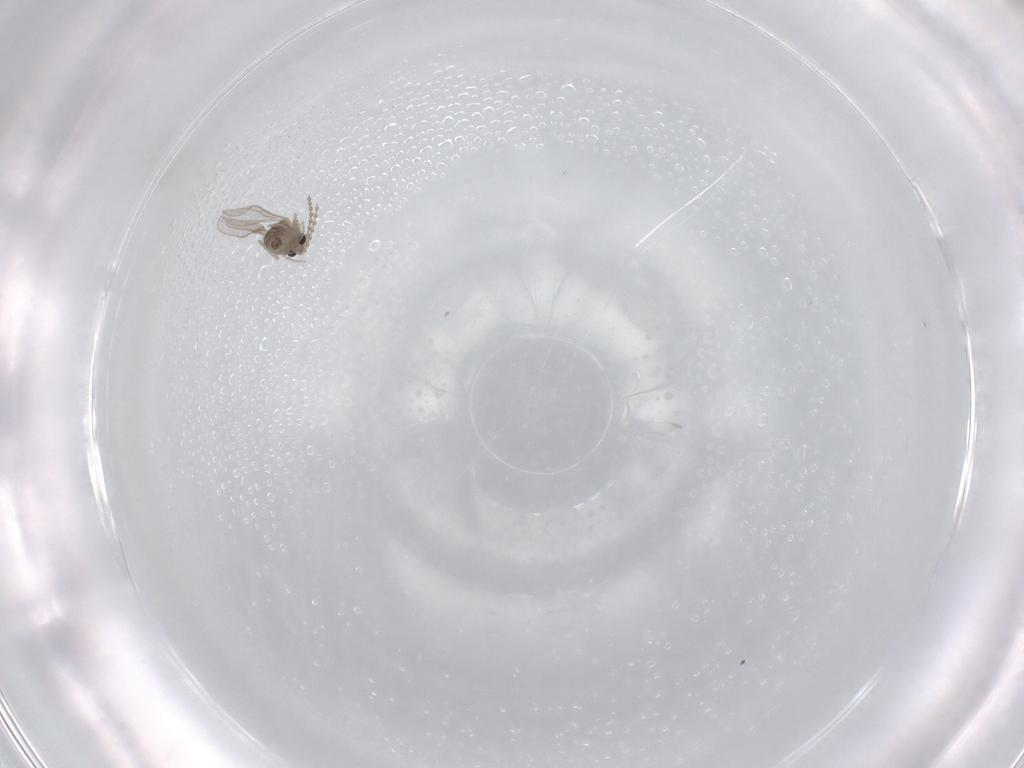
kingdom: Animalia
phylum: Arthropoda
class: Insecta
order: Diptera
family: Cecidomyiidae
